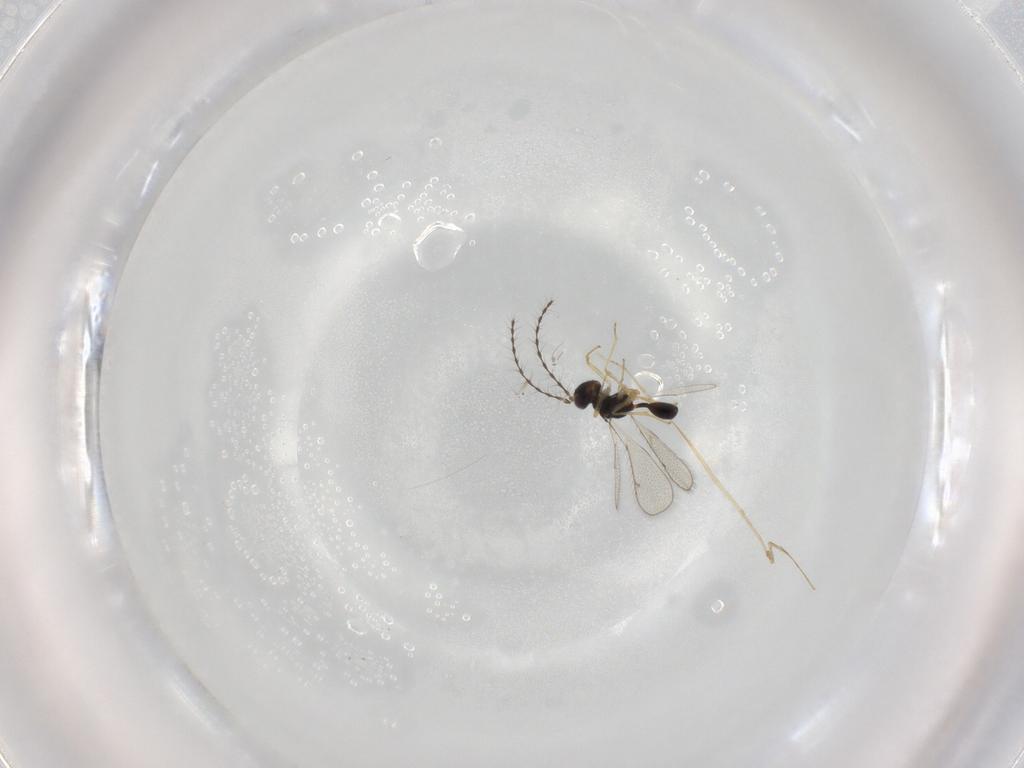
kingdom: Animalia
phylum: Arthropoda
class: Insecta
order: Hymenoptera
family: Diparidae
